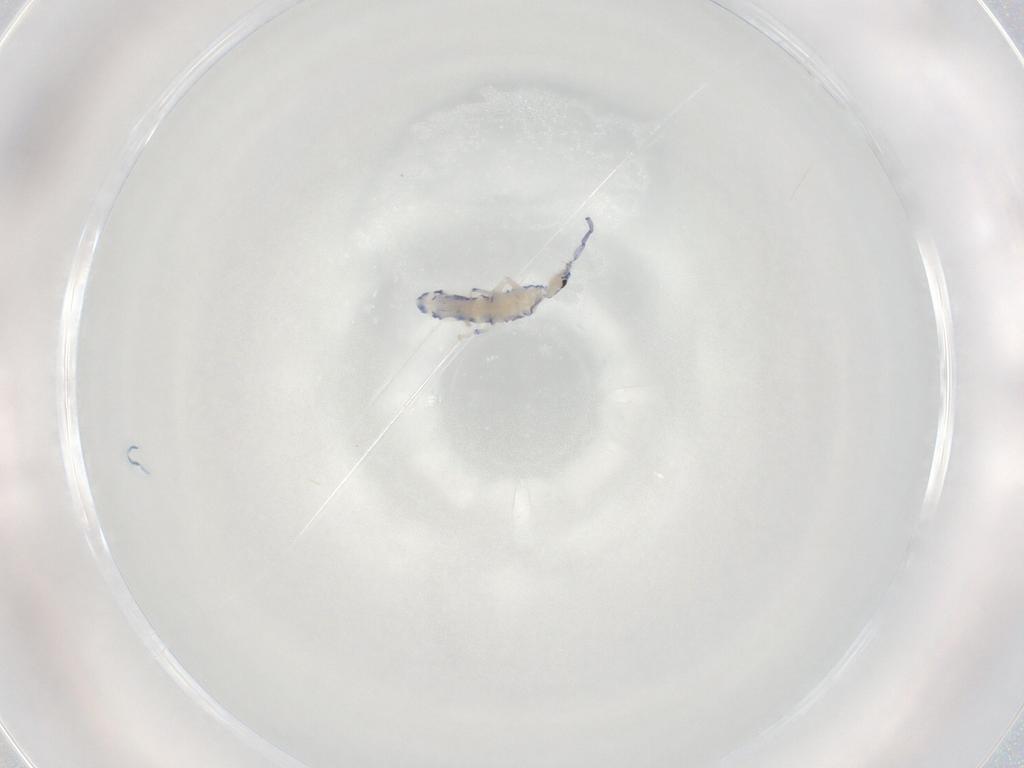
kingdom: Animalia
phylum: Arthropoda
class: Collembola
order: Entomobryomorpha
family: Entomobryidae
